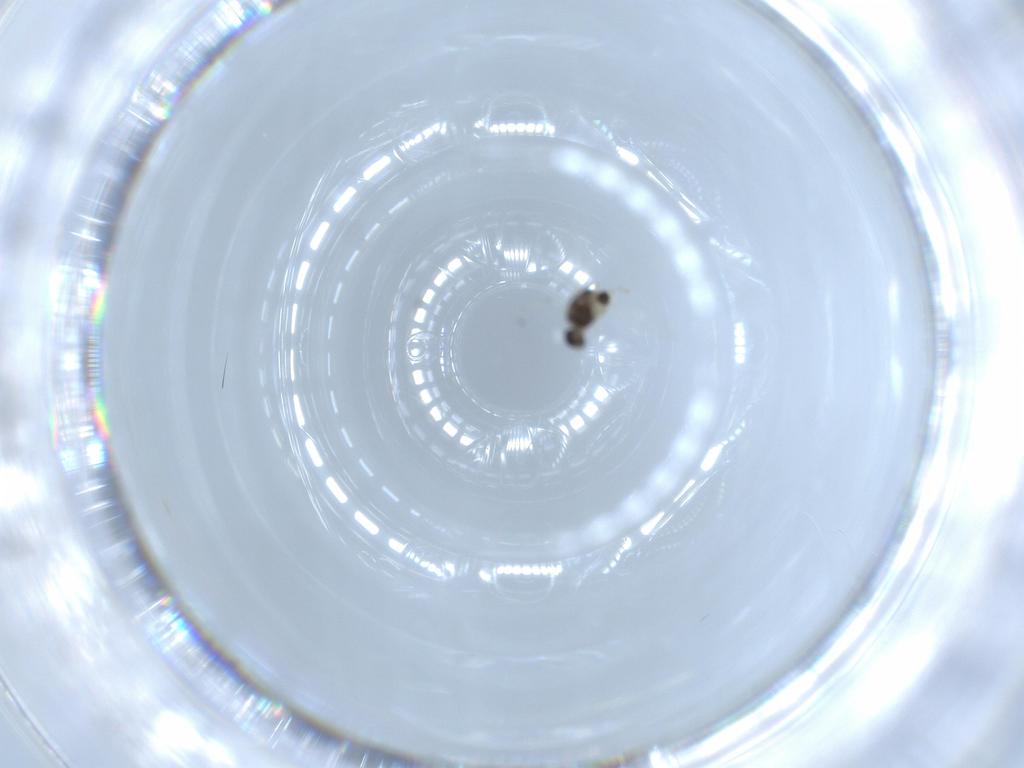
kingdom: Animalia
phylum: Arthropoda
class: Insecta
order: Diptera
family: Chironomidae
